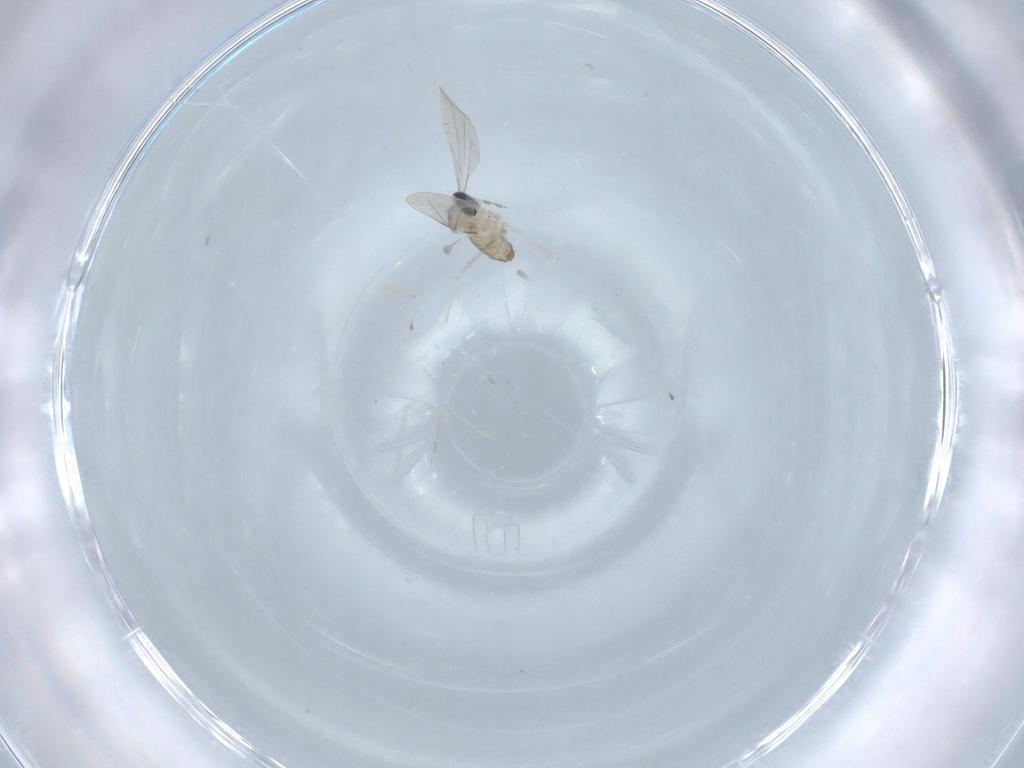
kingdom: Animalia
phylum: Arthropoda
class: Insecta
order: Diptera
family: Cecidomyiidae
